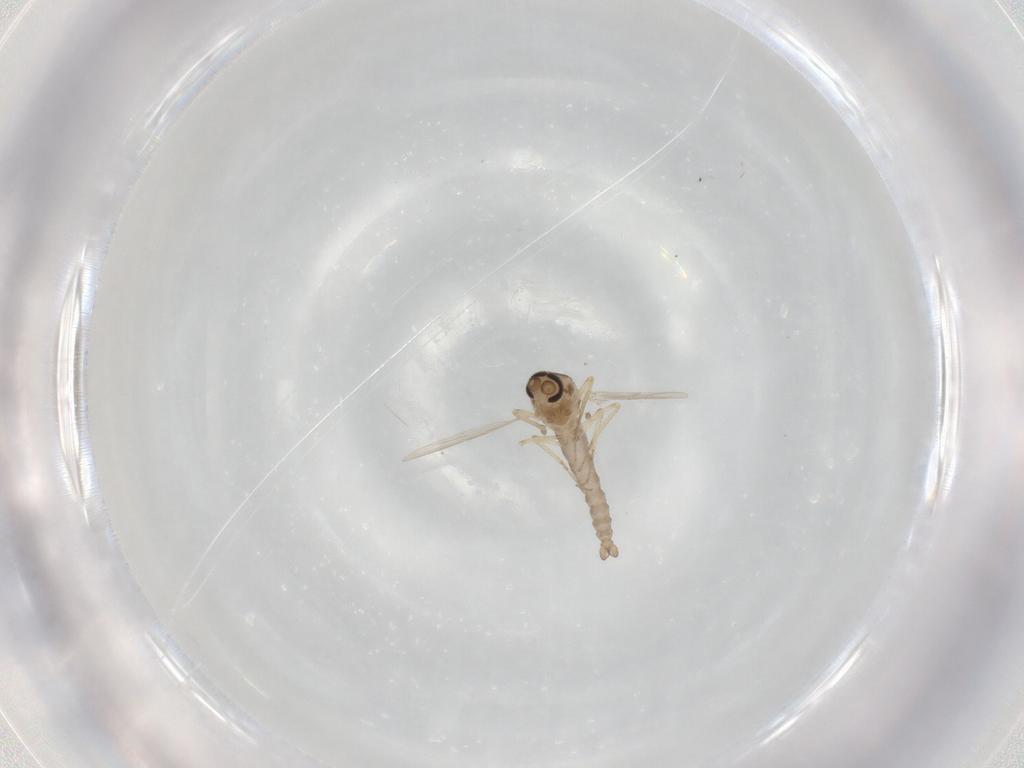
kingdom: Animalia
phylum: Arthropoda
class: Insecta
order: Diptera
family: Ceratopogonidae
